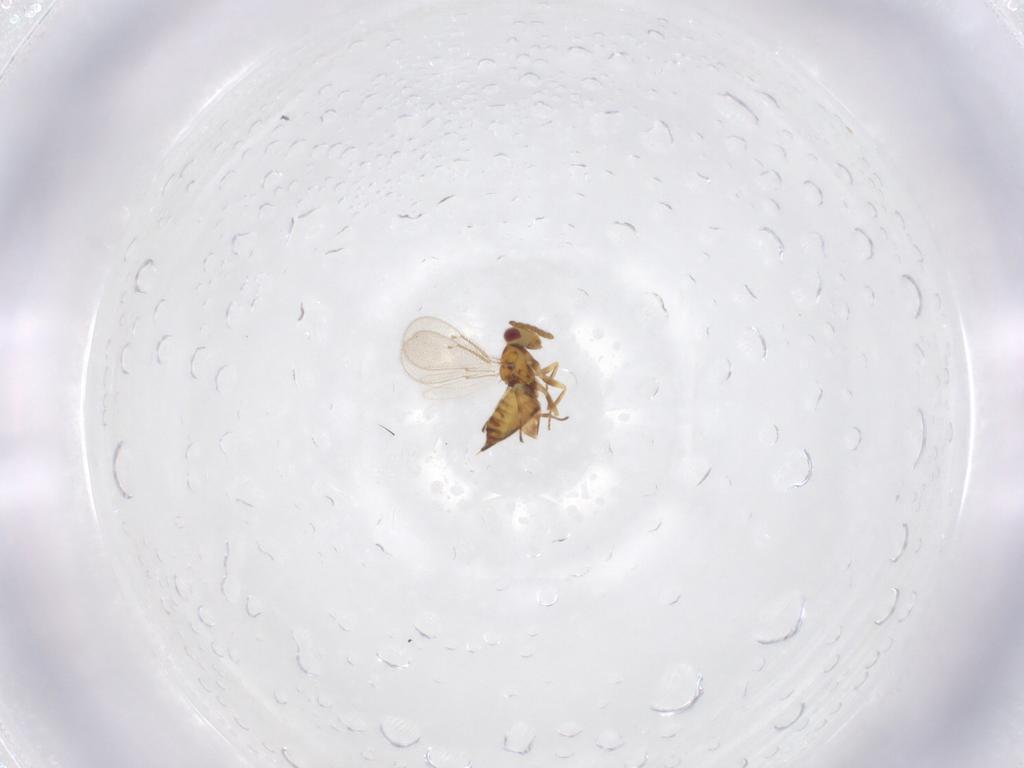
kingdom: Animalia
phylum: Arthropoda
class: Insecta
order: Hymenoptera
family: Eulophidae
